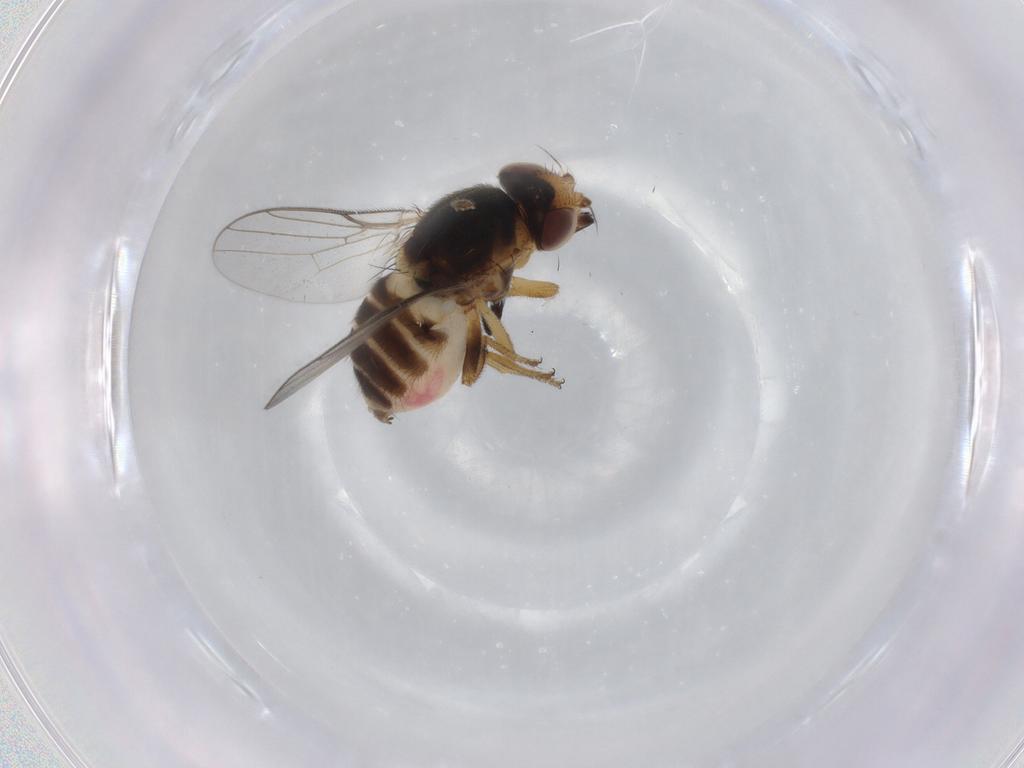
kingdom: Animalia
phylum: Arthropoda
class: Insecta
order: Diptera
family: Chloropidae
